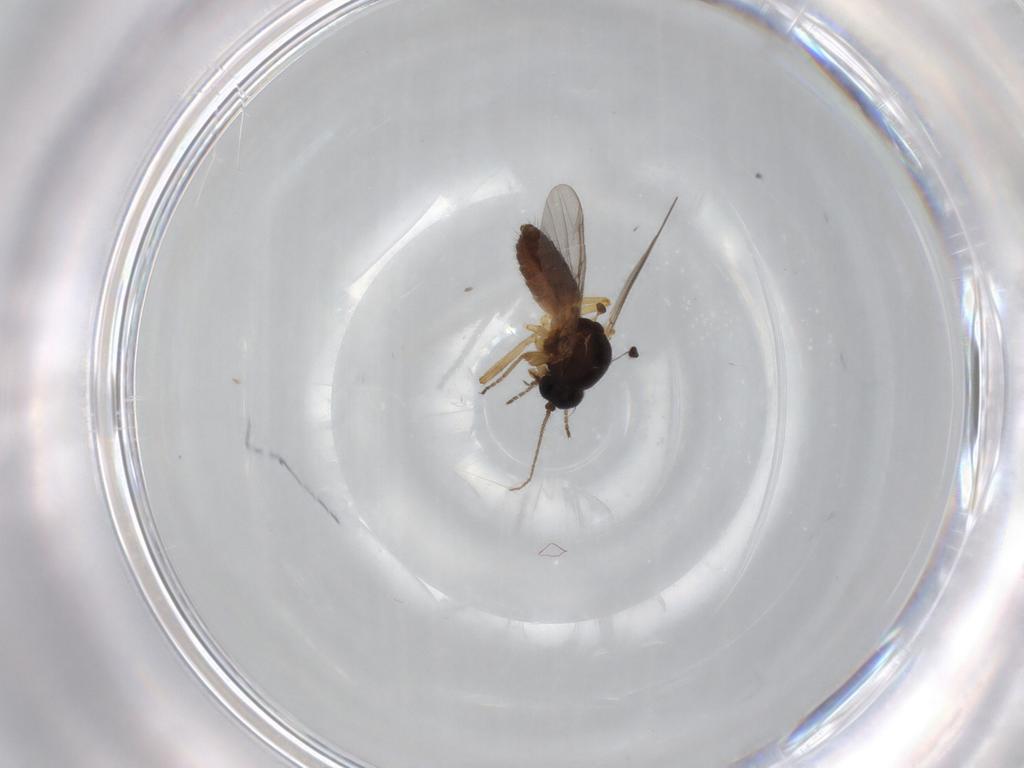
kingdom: Animalia
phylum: Arthropoda
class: Insecta
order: Diptera
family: Ceratopogonidae
